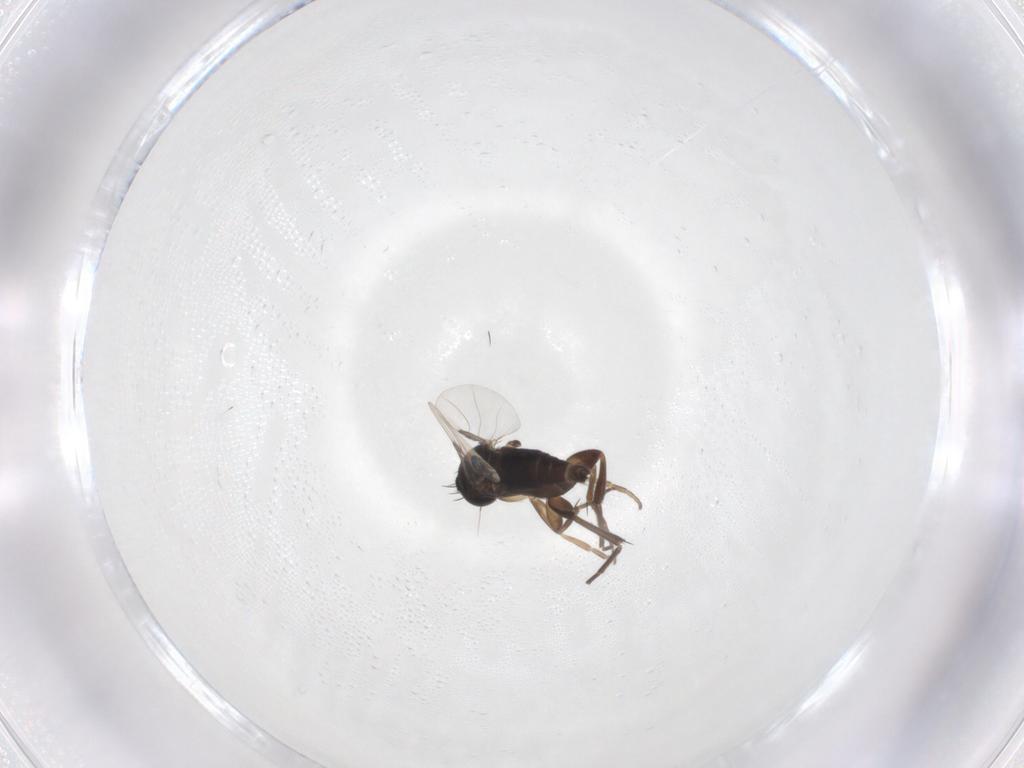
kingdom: Animalia
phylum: Arthropoda
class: Insecta
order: Diptera
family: Phoridae
